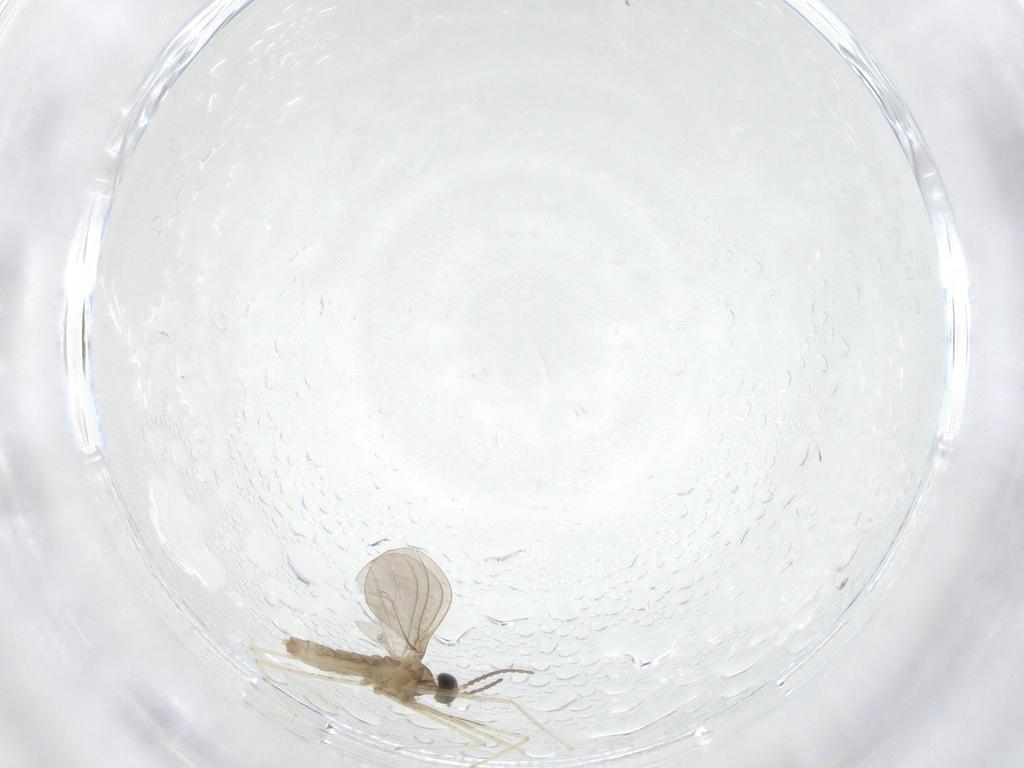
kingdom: Animalia
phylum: Arthropoda
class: Insecta
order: Diptera
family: Cecidomyiidae
